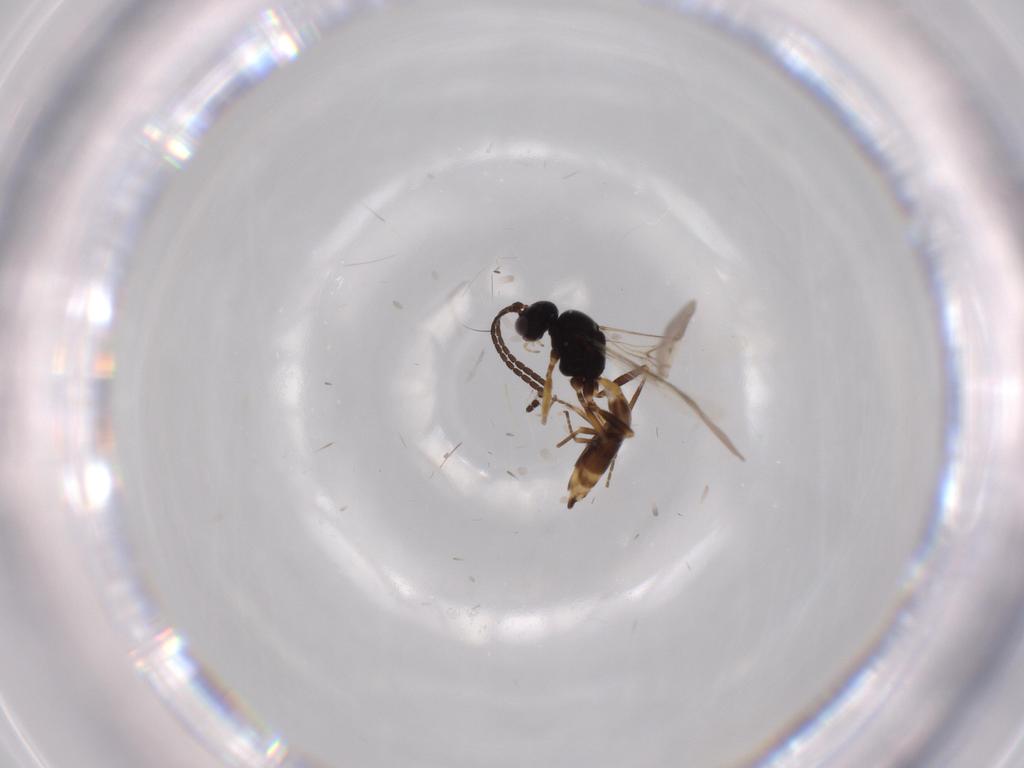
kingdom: Animalia
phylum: Arthropoda
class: Insecta
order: Hymenoptera
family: Braconidae
